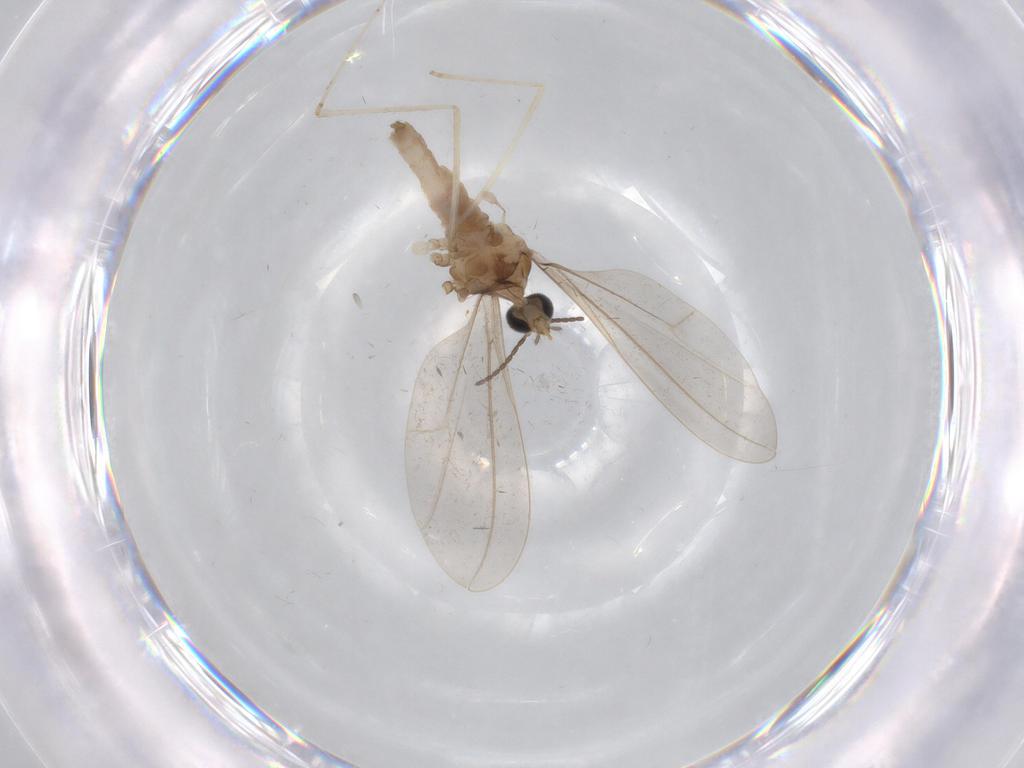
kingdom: Animalia
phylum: Arthropoda
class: Insecta
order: Diptera
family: Cecidomyiidae
